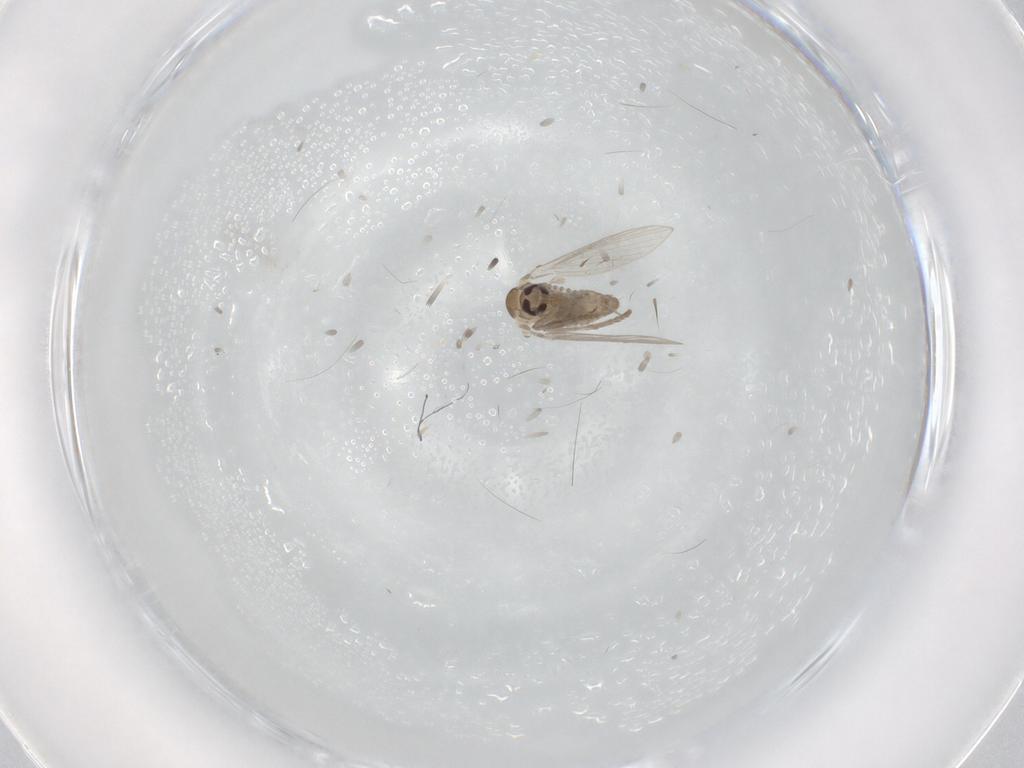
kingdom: Animalia
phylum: Arthropoda
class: Insecta
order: Diptera
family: Psychodidae
